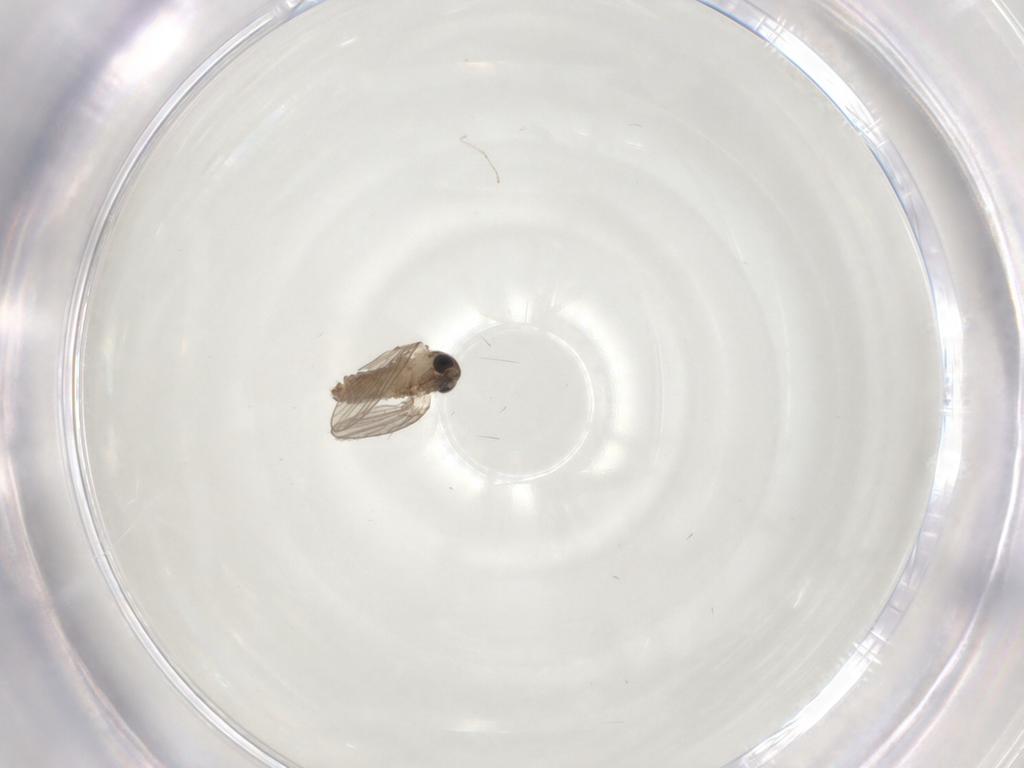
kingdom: Animalia
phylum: Arthropoda
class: Insecta
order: Diptera
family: Cecidomyiidae
